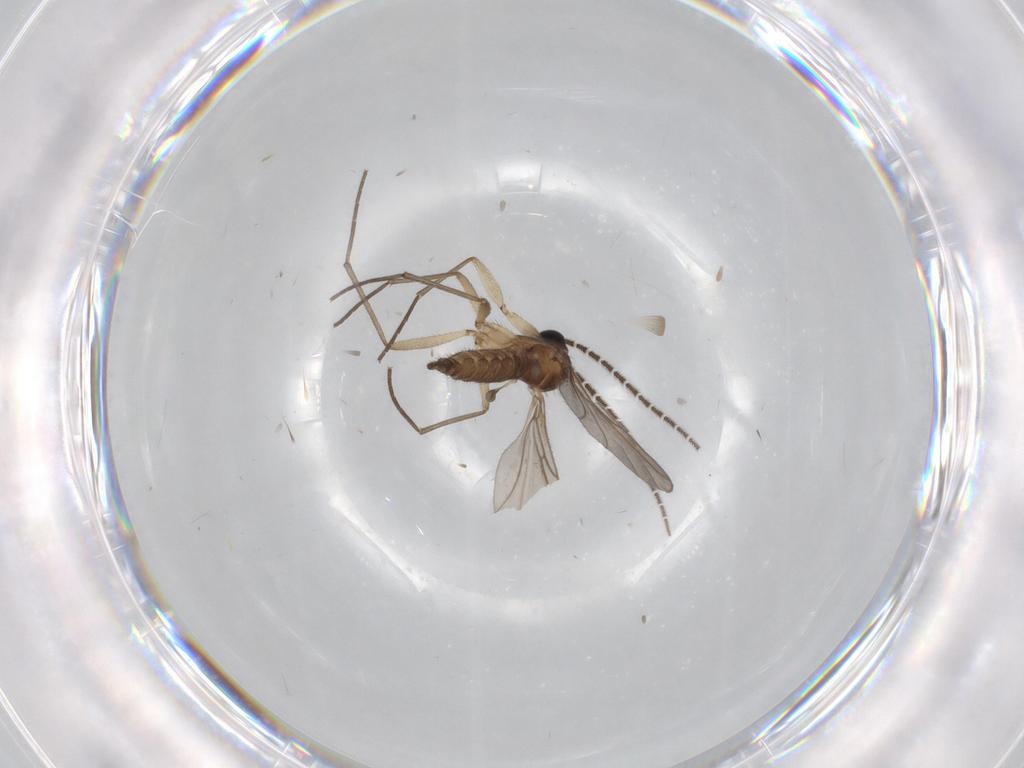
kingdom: Animalia
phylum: Arthropoda
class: Insecta
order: Diptera
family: Sciaridae
